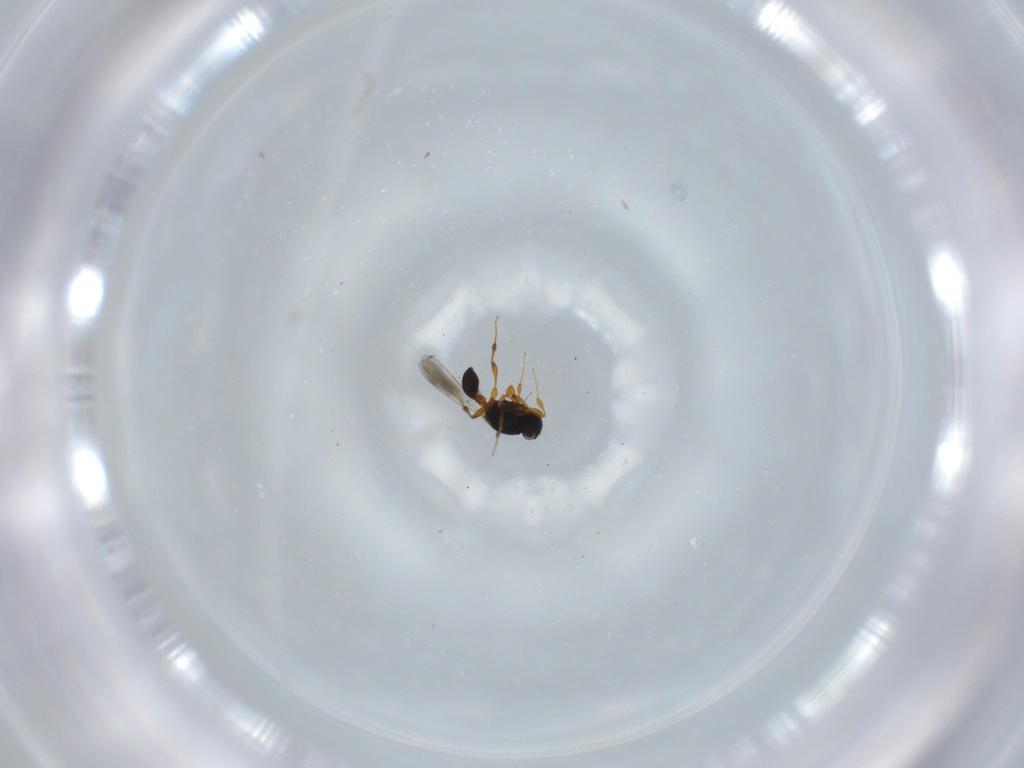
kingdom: Animalia
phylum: Arthropoda
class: Insecta
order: Hymenoptera
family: Platygastridae
